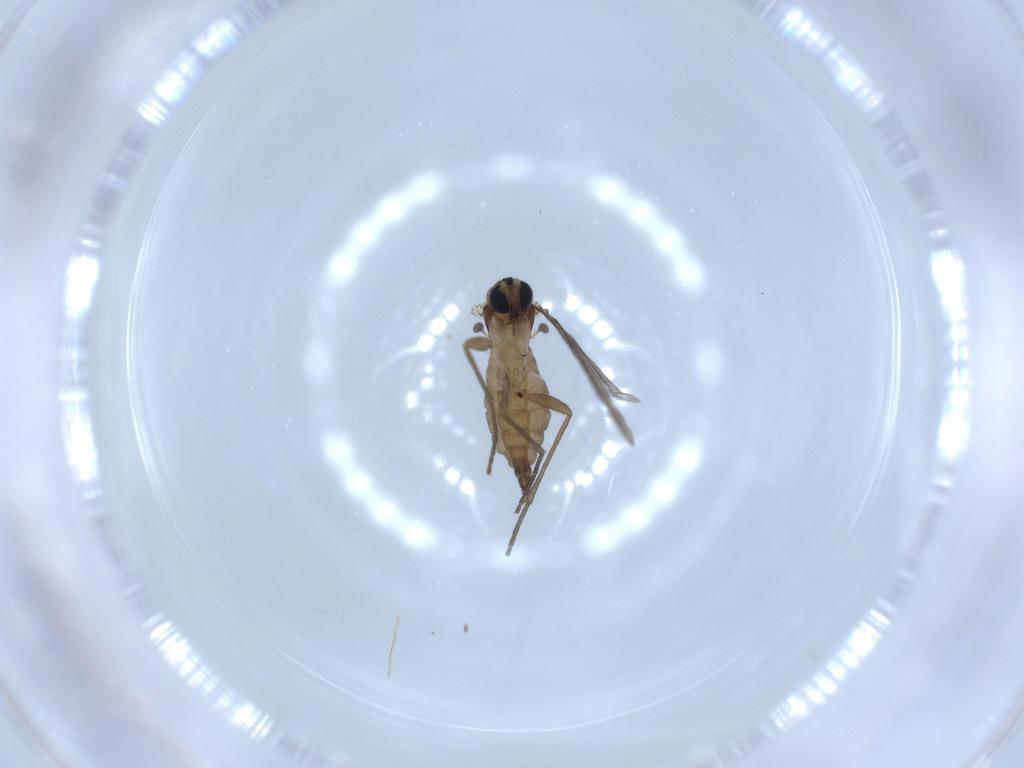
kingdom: Animalia
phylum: Arthropoda
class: Insecta
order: Diptera
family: Sciaridae
